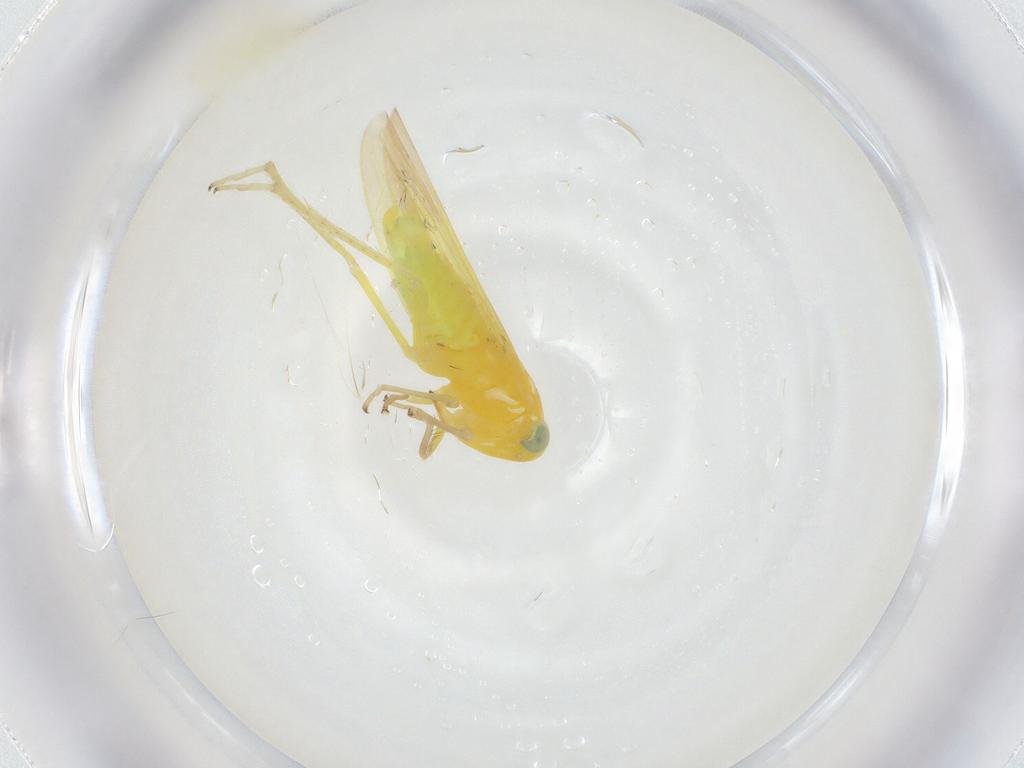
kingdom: Animalia
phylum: Arthropoda
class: Insecta
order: Hemiptera
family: Cicadellidae
